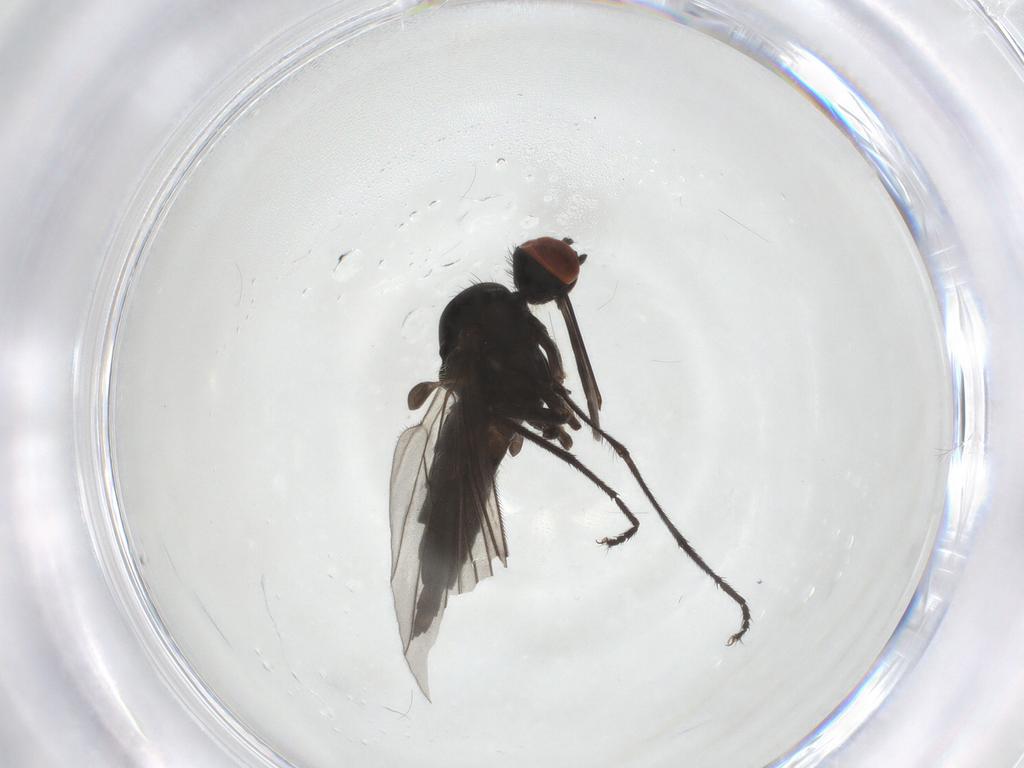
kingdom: Animalia
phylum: Arthropoda
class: Insecta
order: Diptera
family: Empididae
